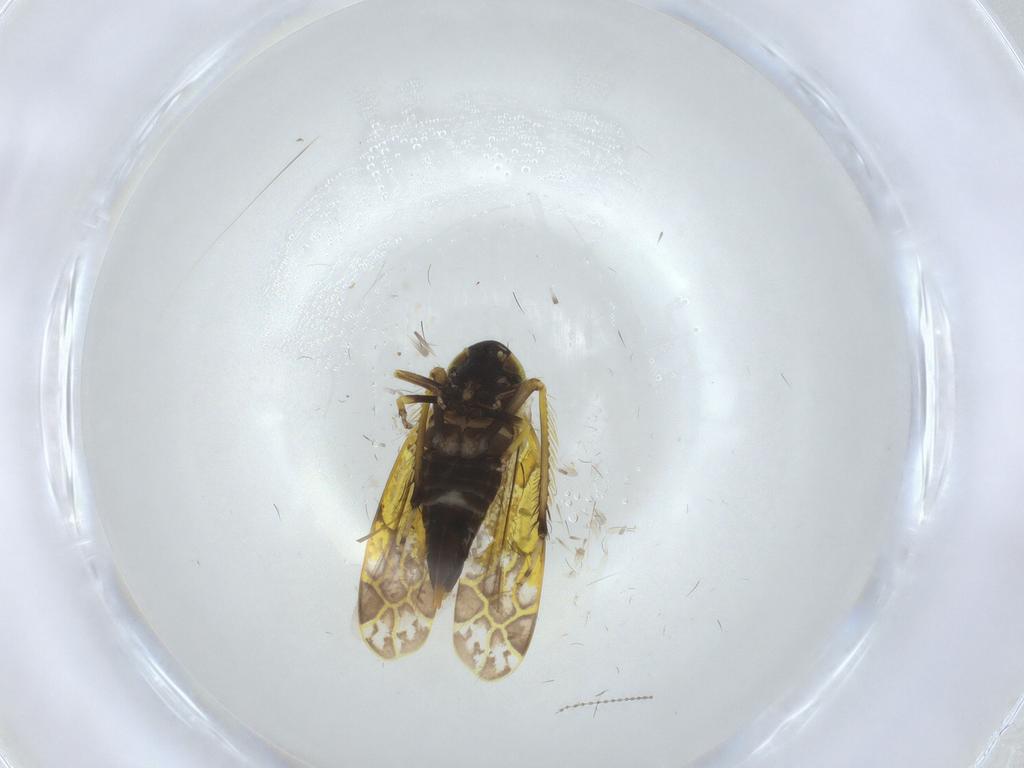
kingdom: Animalia
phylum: Arthropoda
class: Insecta
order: Hemiptera
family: Cicadellidae
